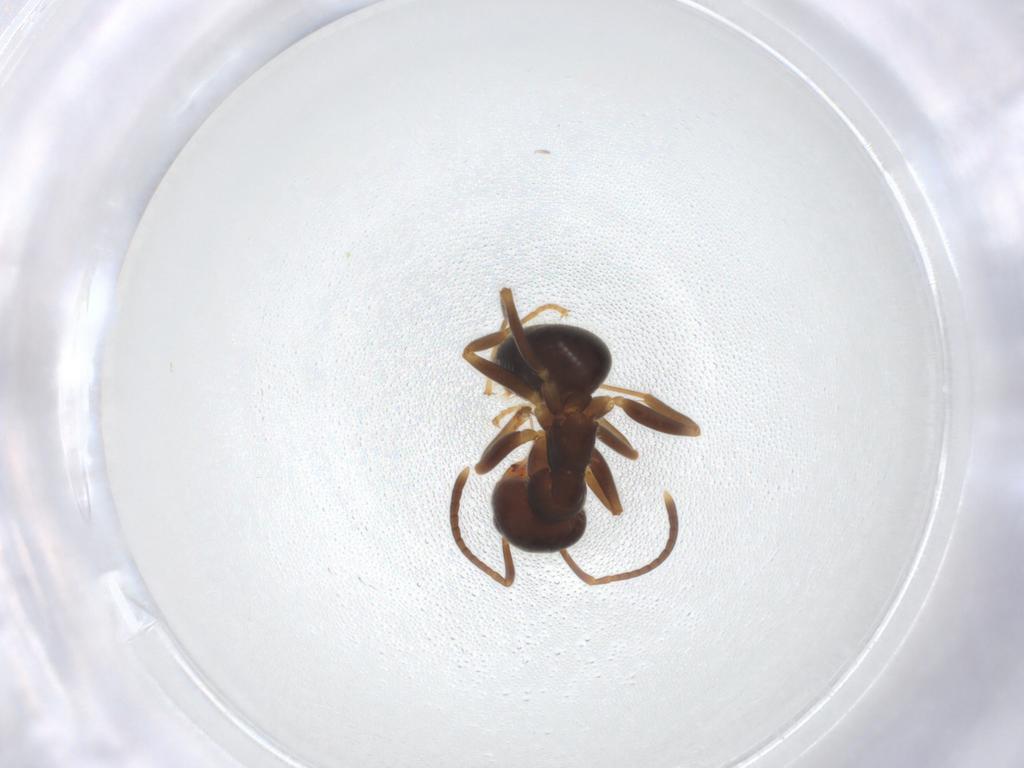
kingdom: Animalia
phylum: Arthropoda
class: Insecta
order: Hymenoptera
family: Formicidae
